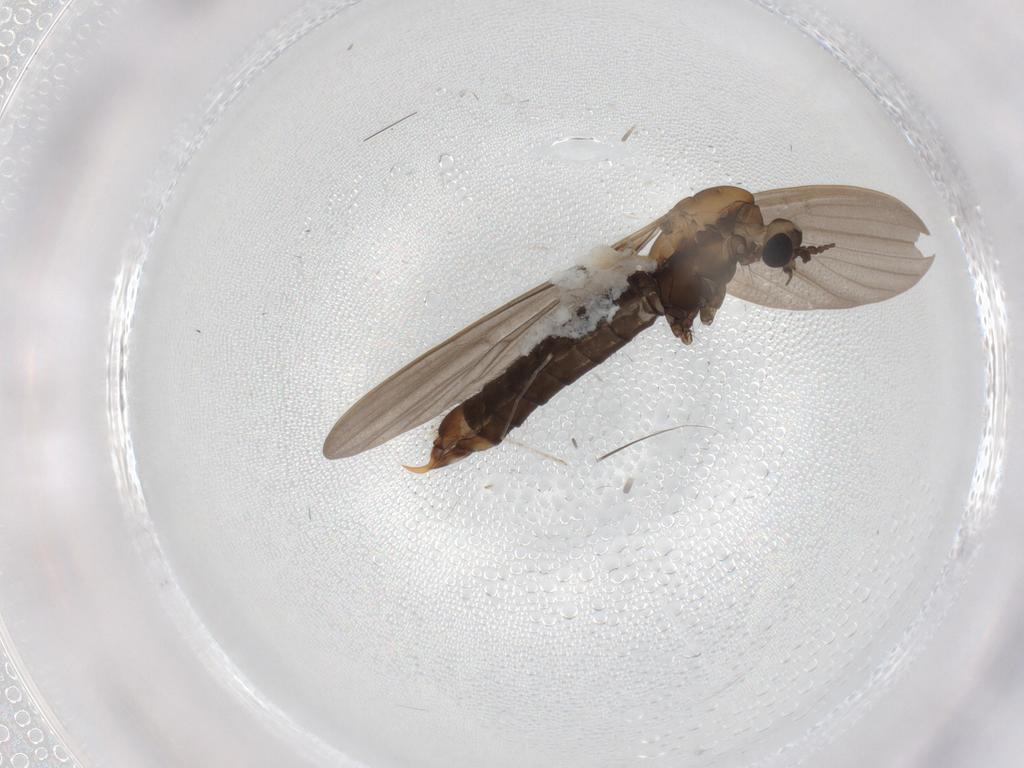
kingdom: Animalia
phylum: Arthropoda
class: Insecta
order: Diptera
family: Limoniidae
